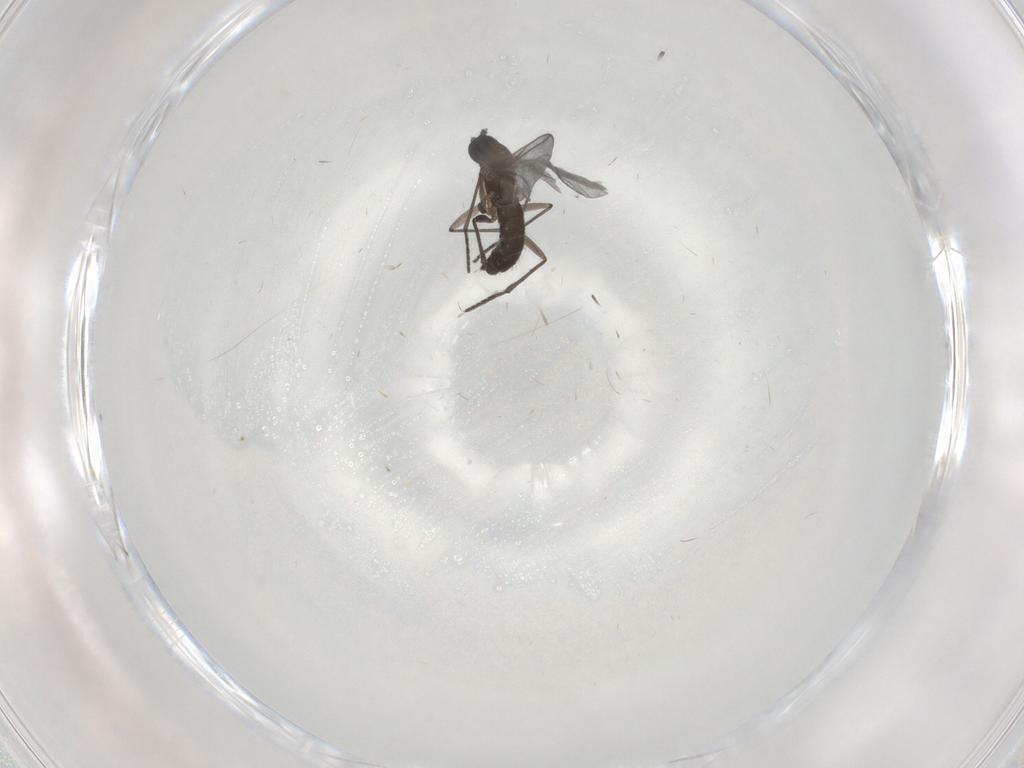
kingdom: Animalia
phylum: Arthropoda
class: Insecta
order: Diptera
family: Sciaridae
